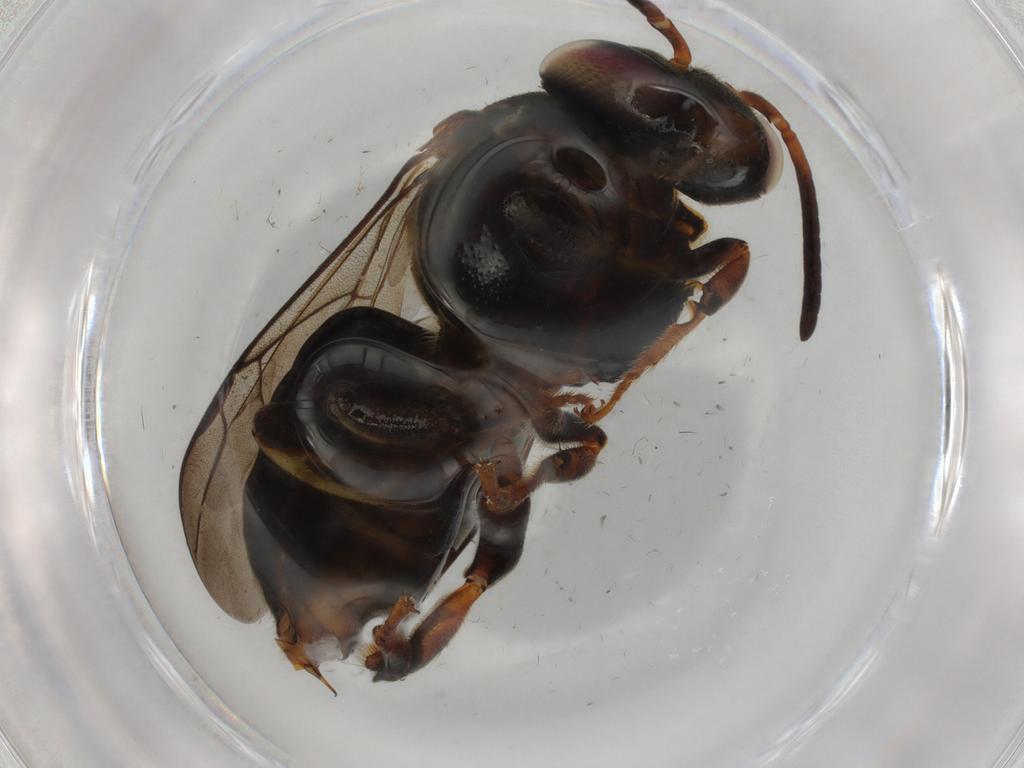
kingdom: Animalia
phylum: Arthropoda
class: Insecta
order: Hymenoptera
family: Apidae
